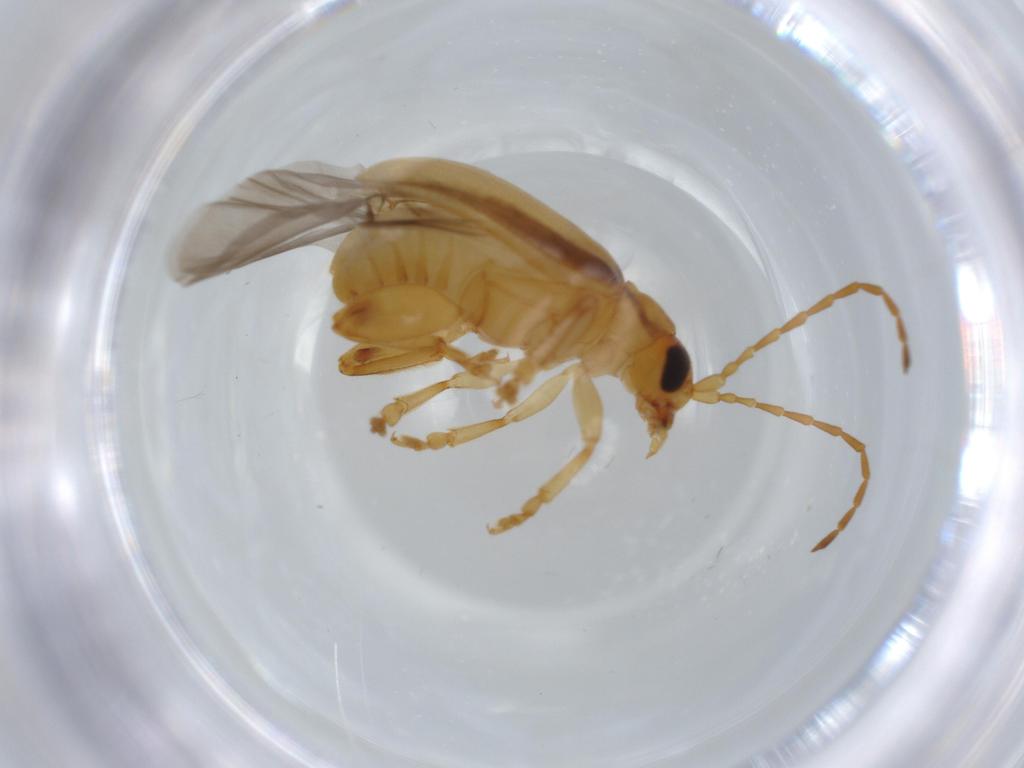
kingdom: Animalia
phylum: Arthropoda
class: Insecta
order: Coleoptera
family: Chrysomelidae
